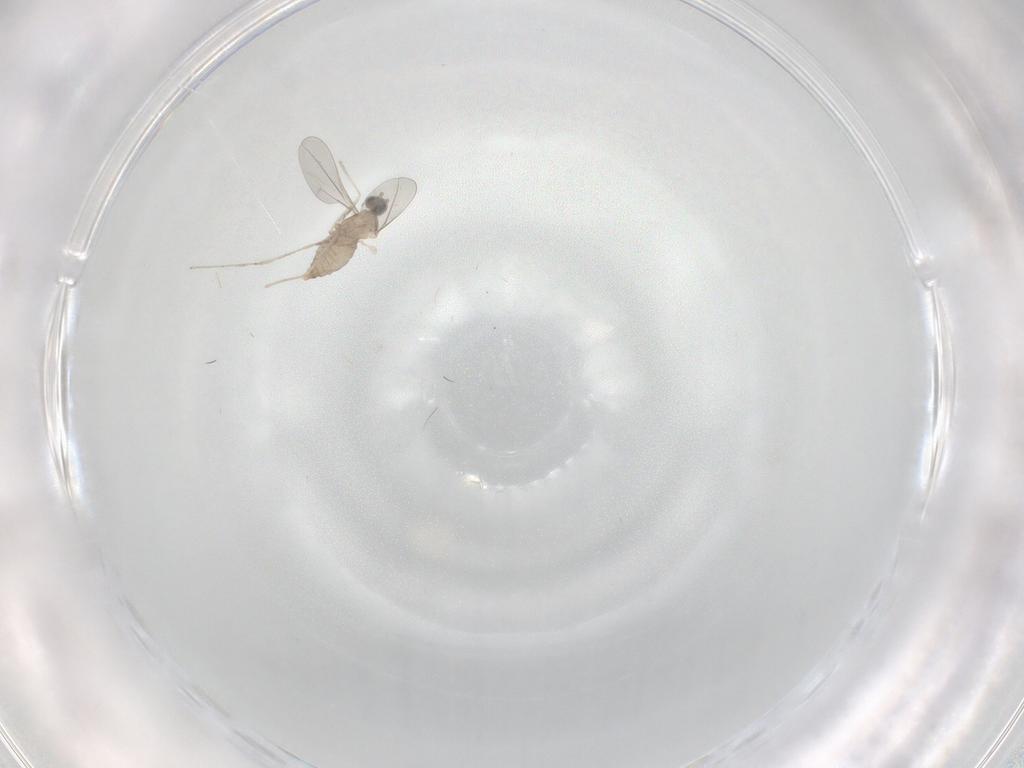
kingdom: Animalia
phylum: Arthropoda
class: Insecta
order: Diptera
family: Cecidomyiidae
